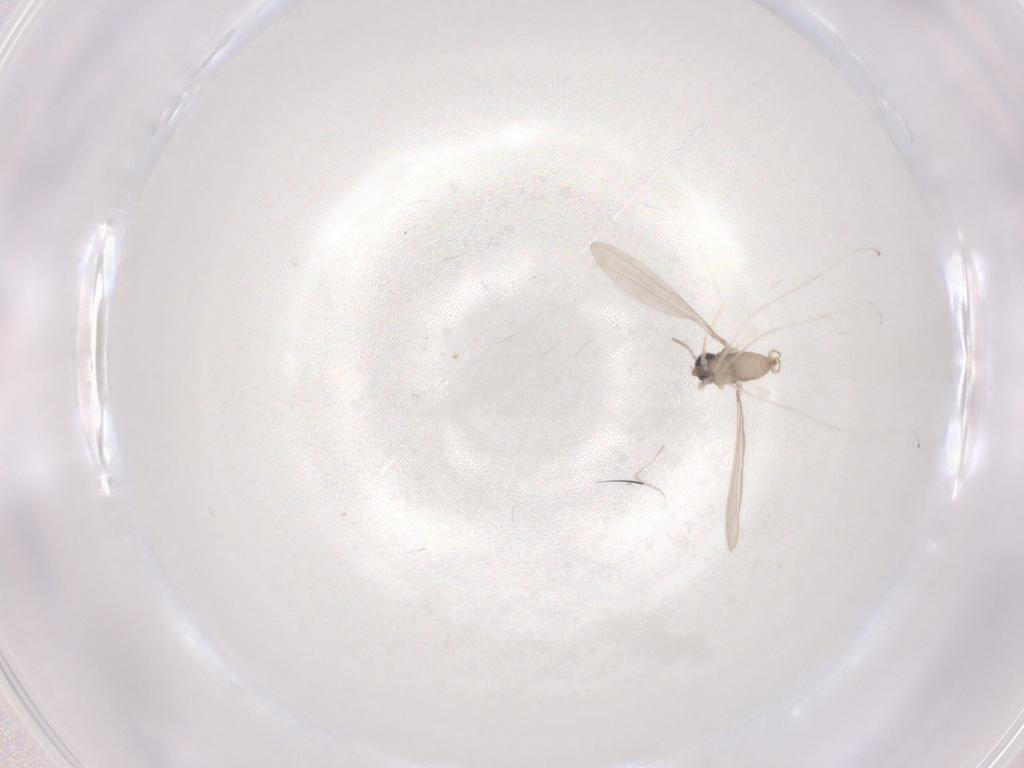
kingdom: Animalia
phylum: Arthropoda
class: Insecta
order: Diptera
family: Cecidomyiidae
